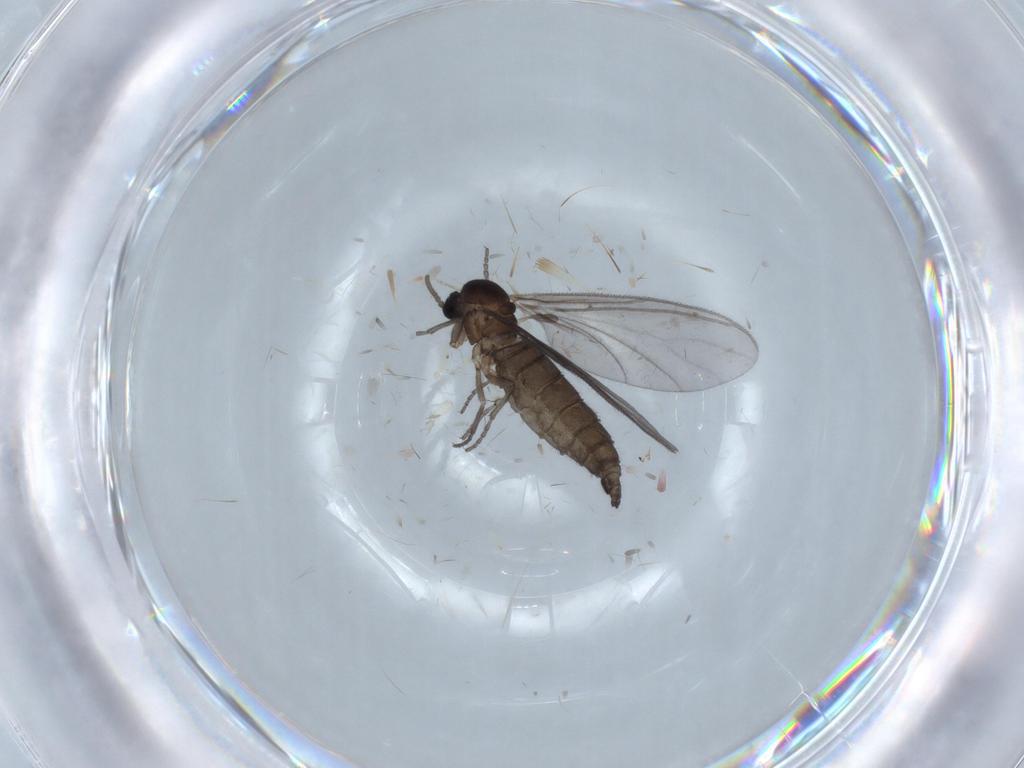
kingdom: Animalia
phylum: Arthropoda
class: Insecta
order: Diptera
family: Cecidomyiidae
